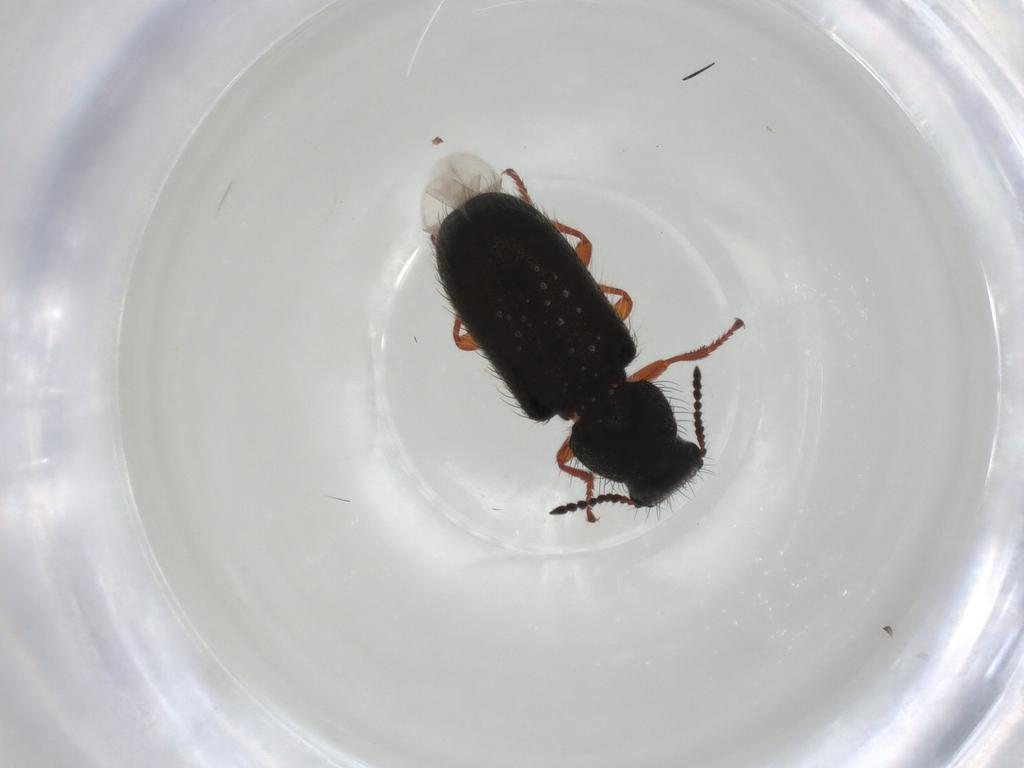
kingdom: Animalia
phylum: Arthropoda
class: Insecta
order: Coleoptera
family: Melyridae
